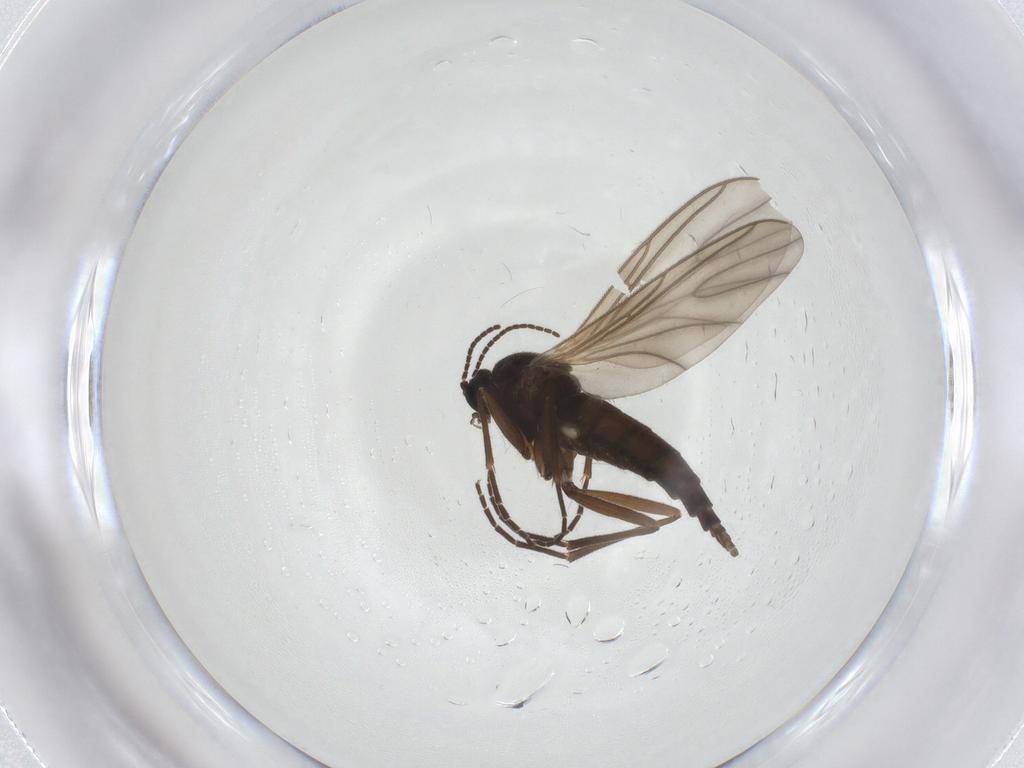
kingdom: Animalia
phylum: Arthropoda
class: Insecta
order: Diptera
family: Sciaridae
